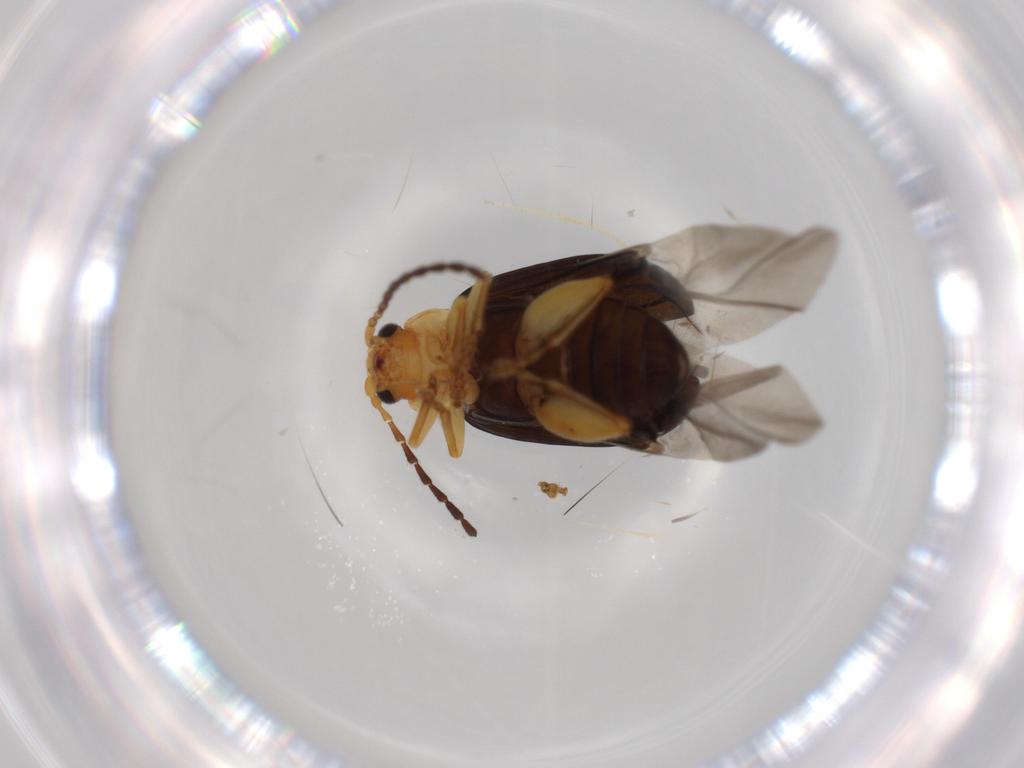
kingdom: Animalia
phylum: Arthropoda
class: Insecta
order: Coleoptera
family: Chrysomelidae
